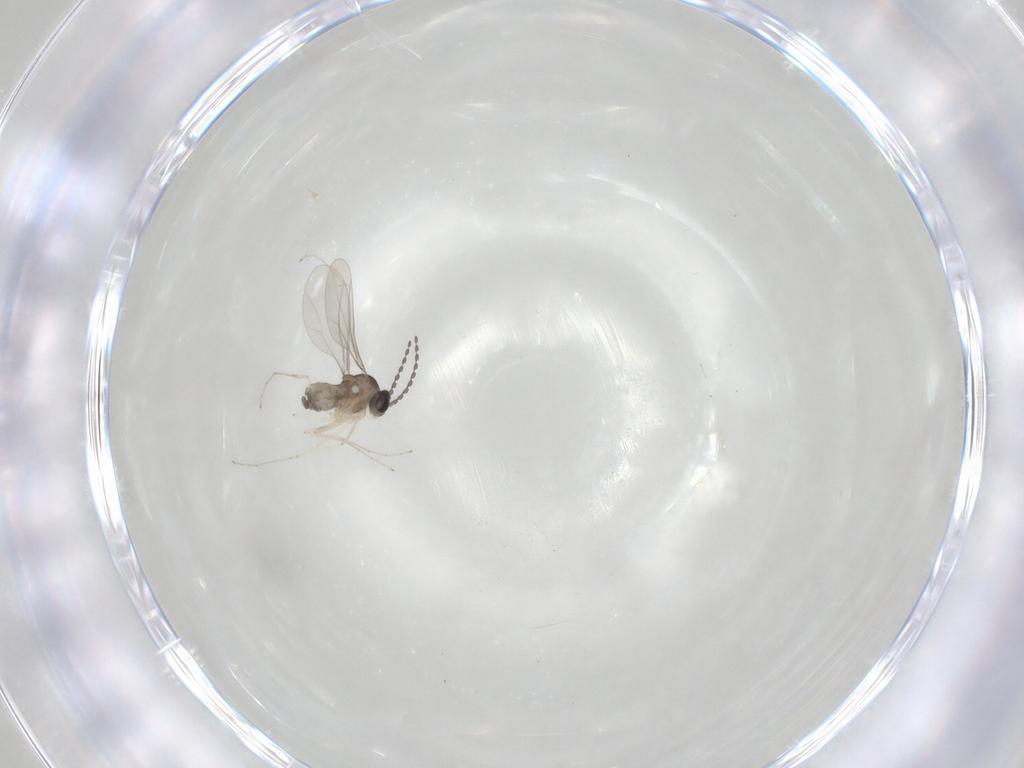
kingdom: Animalia
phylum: Arthropoda
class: Insecta
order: Diptera
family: Cecidomyiidae
